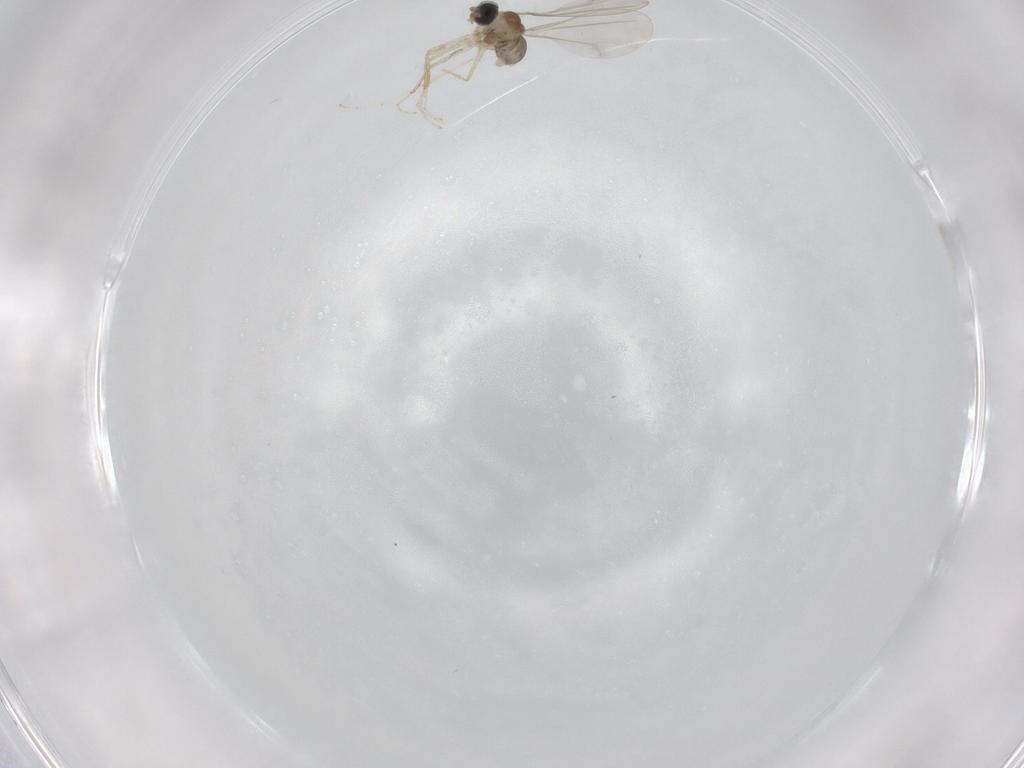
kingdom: Animalia
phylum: Arthropoda
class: Insecta
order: Diptera
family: Cecidomyiidae
